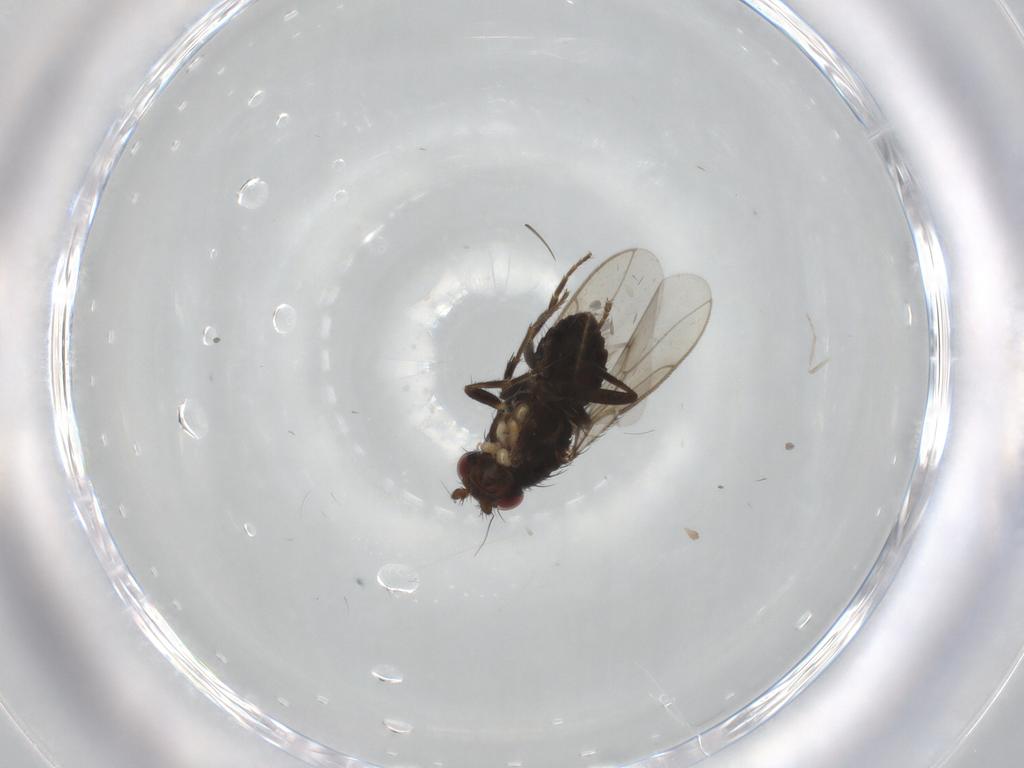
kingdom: Animalia
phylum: Arthropoda
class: Insecta
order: Diptera
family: Sphaeroceridae
